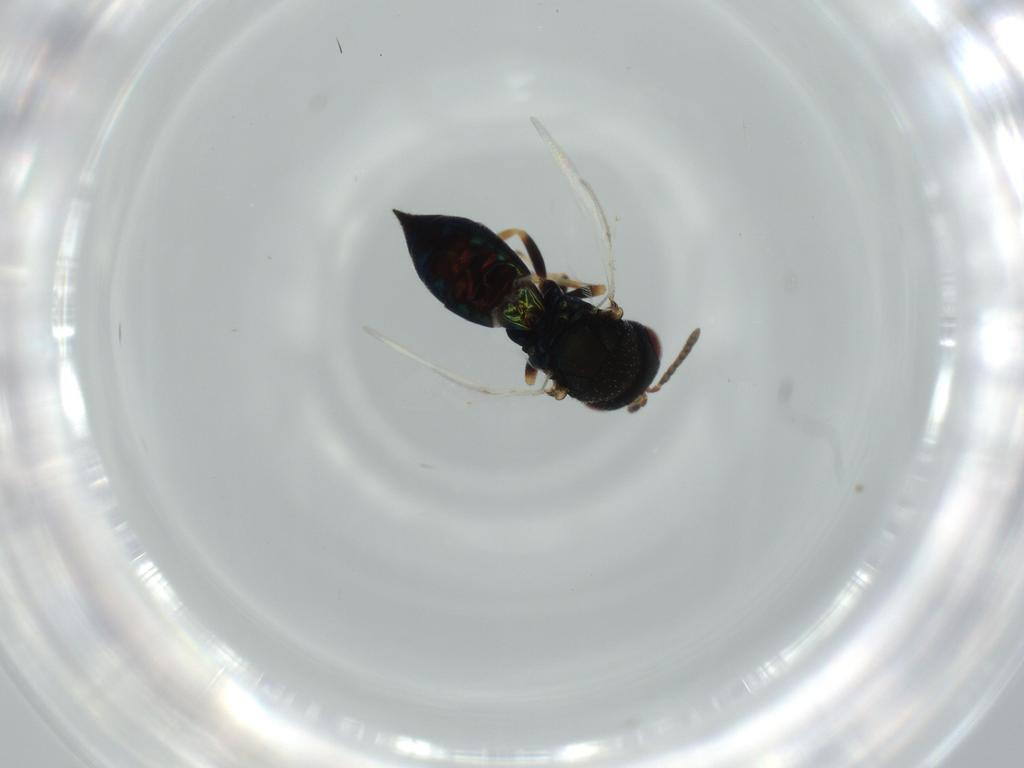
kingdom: Animalia
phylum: Arthropoda
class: Insecta
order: Hymenoptera
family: Pteromalidae
